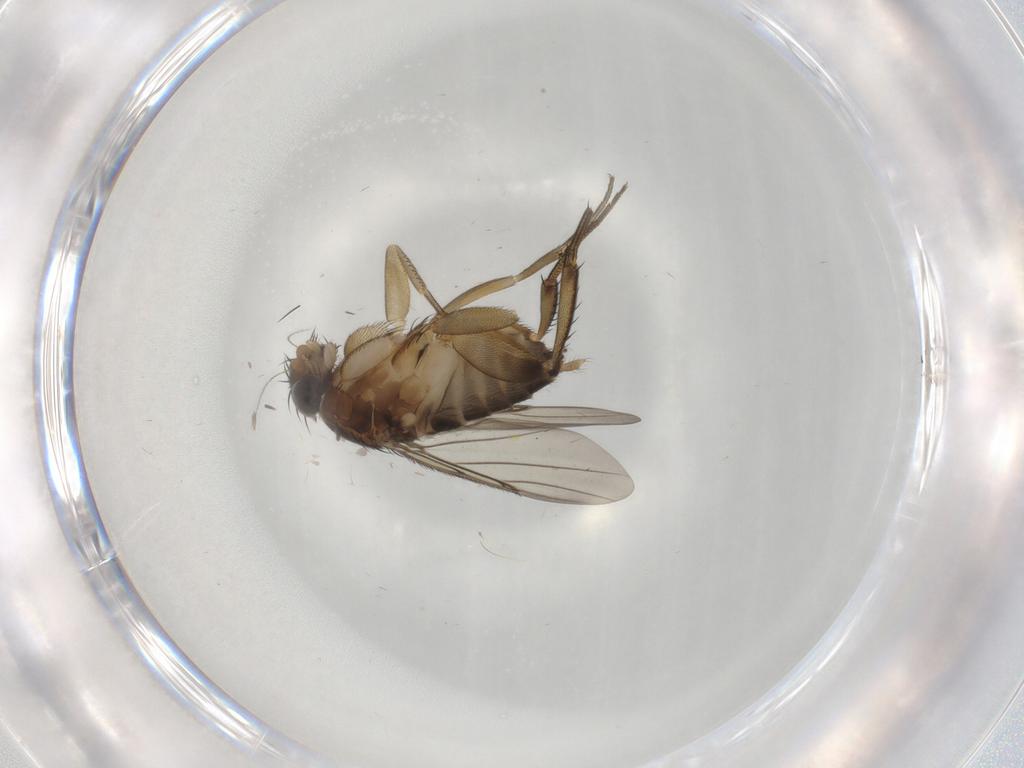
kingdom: Animalia
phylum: Arthropoda
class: Insecta
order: Diptera
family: Sciaridae
